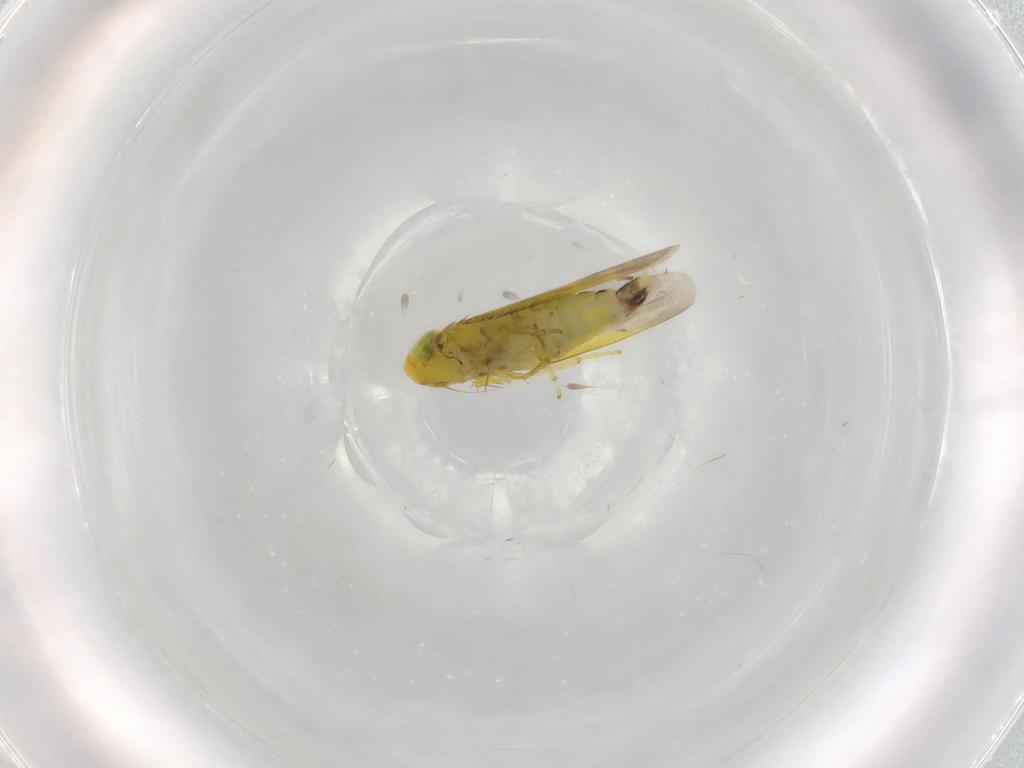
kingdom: Animalia
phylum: Arthropoda
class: Insecta
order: Hemiptera
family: Cicadellidae
